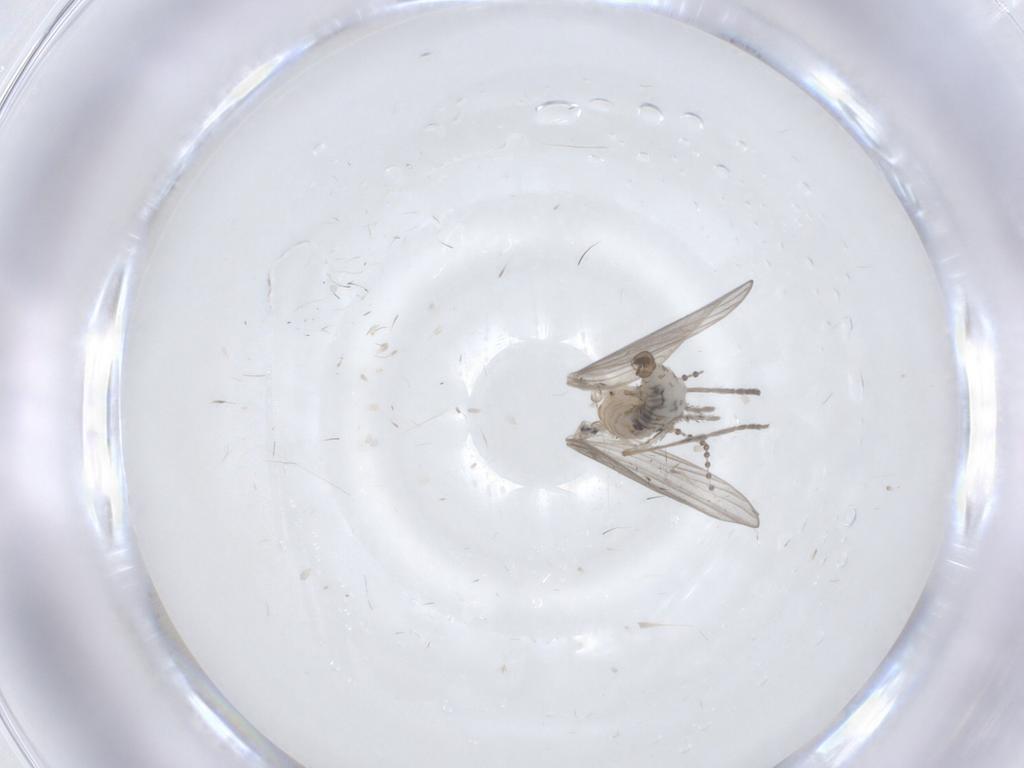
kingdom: Animalia
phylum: Arthropoda
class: Insecta
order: Diptera
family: Psychodidae
